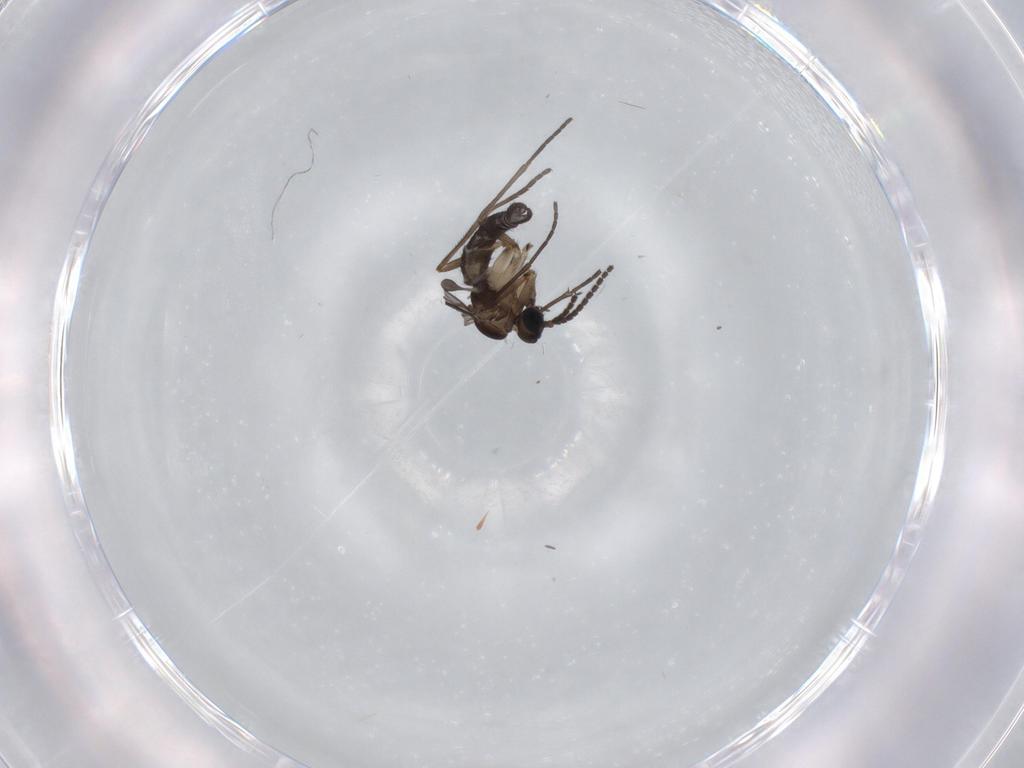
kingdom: Animalia
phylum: Arthropoda
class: Insecta
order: Diptera
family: Sciaridae
